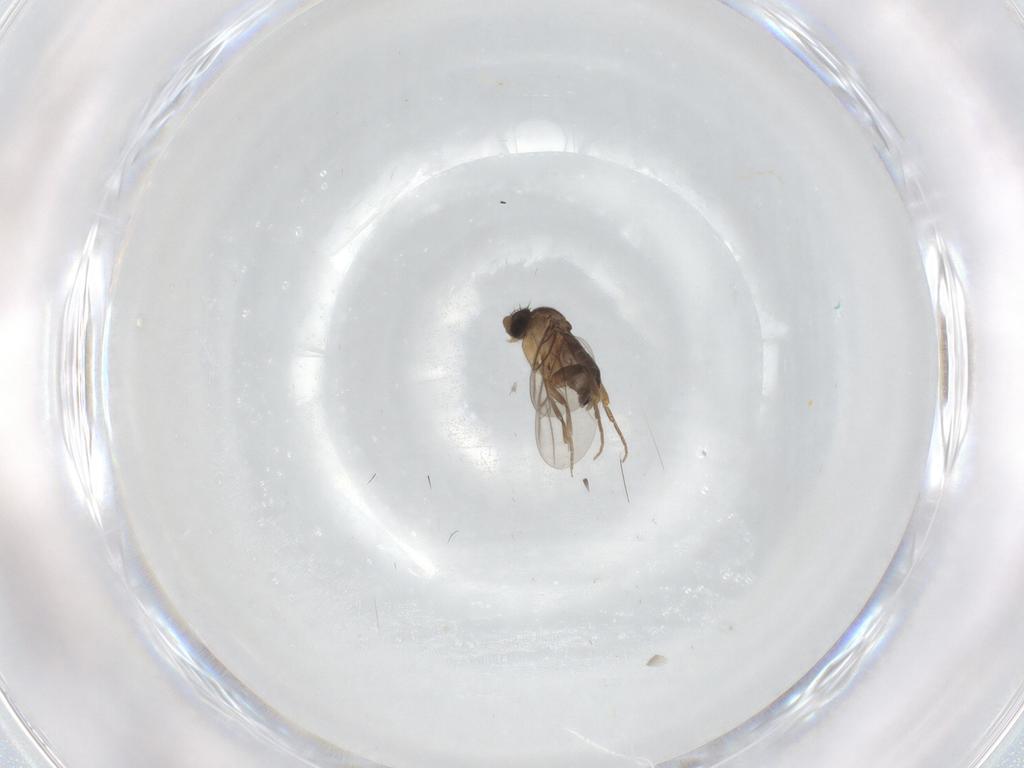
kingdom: Animalia
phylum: Arthropoda
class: Insecta
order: Diptera
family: Phoridae
